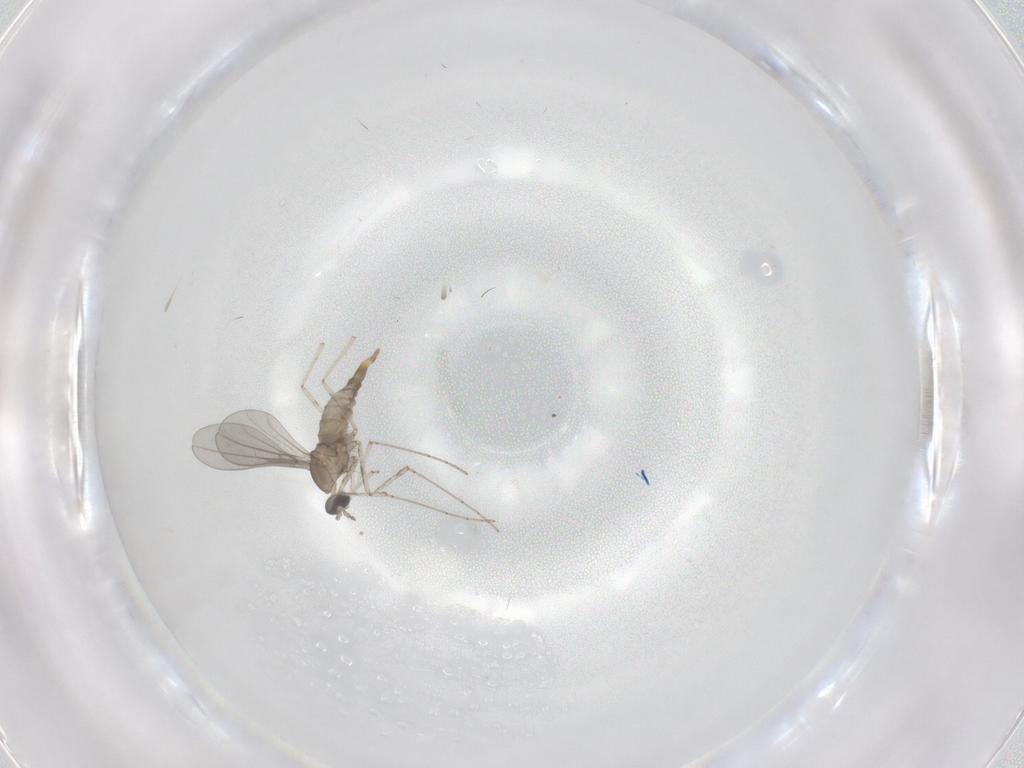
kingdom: Animalia
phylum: Arthropoda
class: Insecta
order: Diptera
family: Cecidomyiidae
